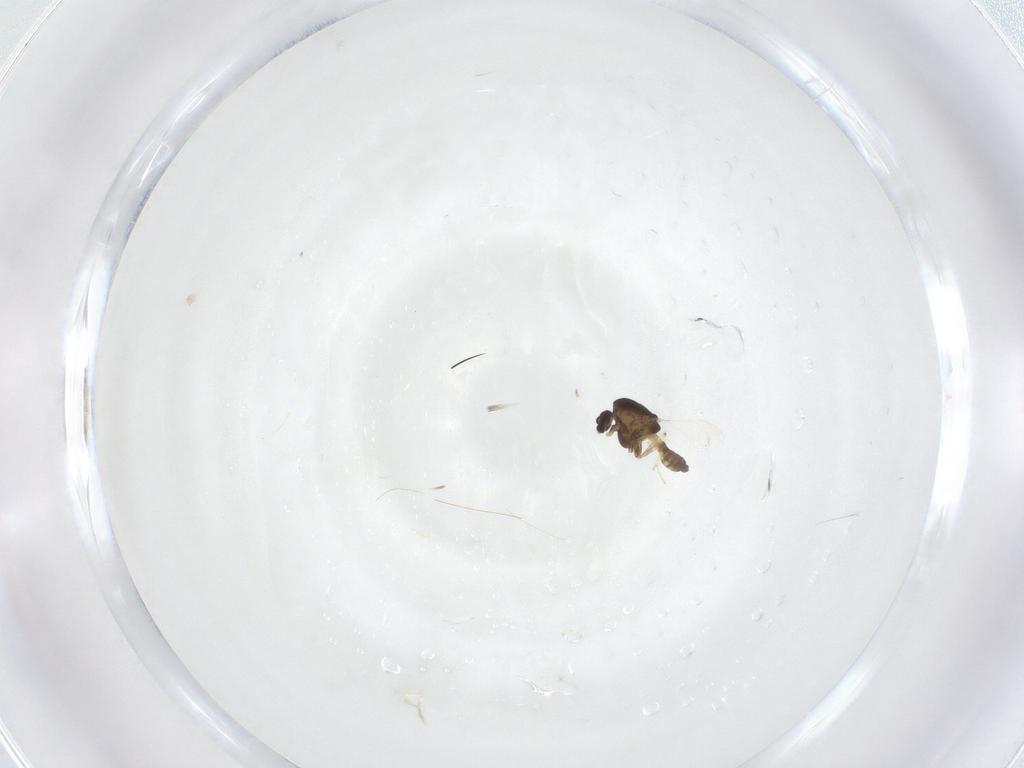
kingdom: Animalia
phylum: Arthropoda
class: Insecta
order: Diptera
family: Chironomidae
